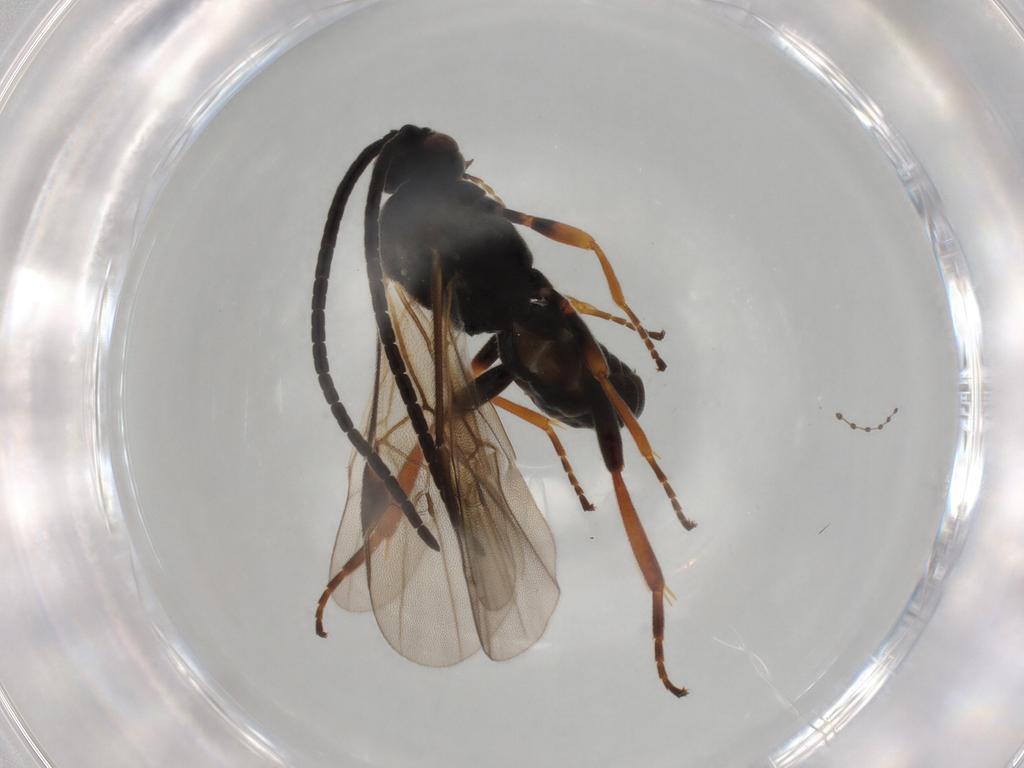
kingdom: Animalia
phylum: Arthropoda
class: Insecta
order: Hymenoptera
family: Braconidae
